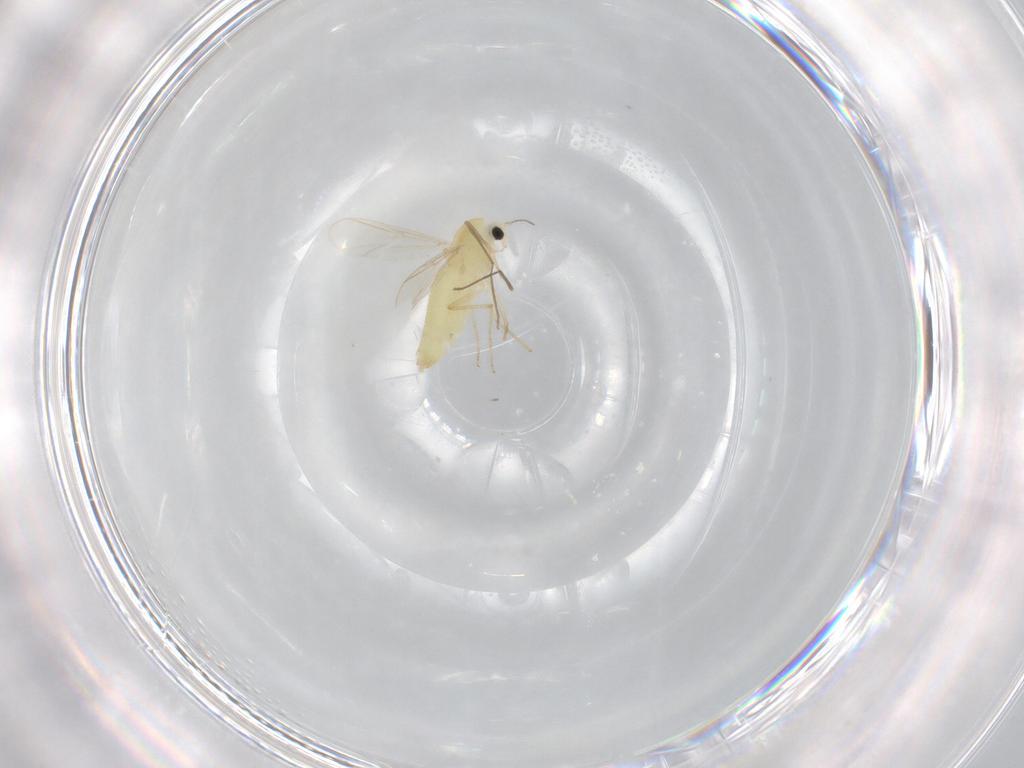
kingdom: Animalia
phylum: Arthropoda
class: Insecta
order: Diptera
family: Chironomidae
